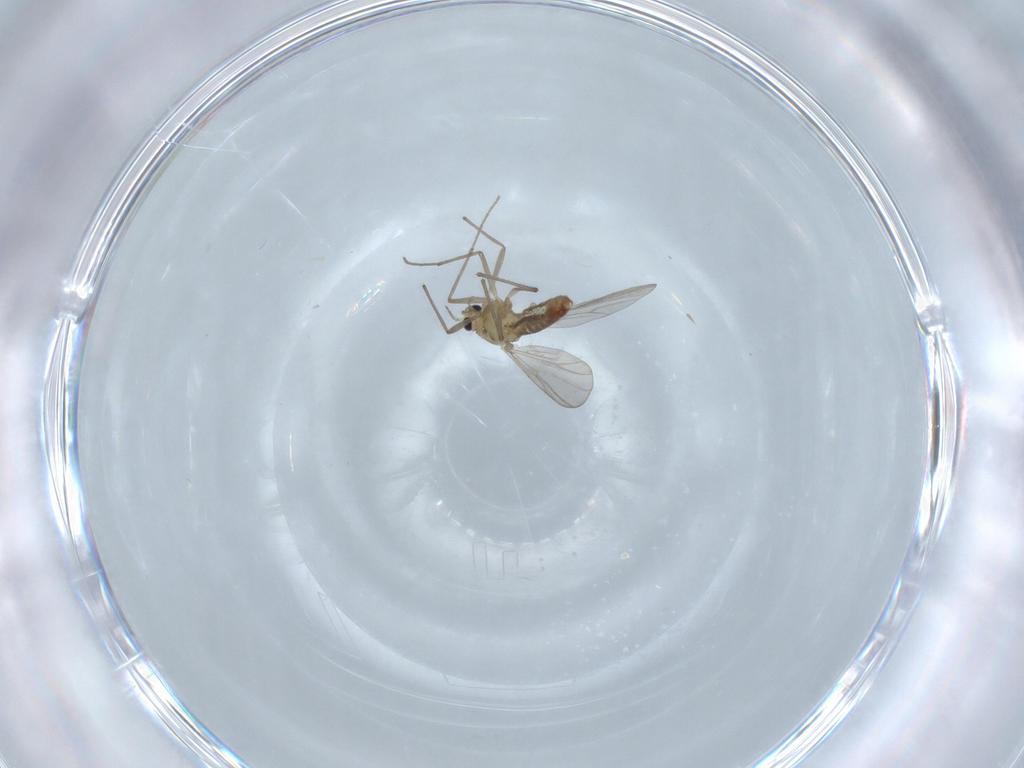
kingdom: Animalia
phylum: Arthropoda
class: Insecta
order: Diptera
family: Chironomidae
